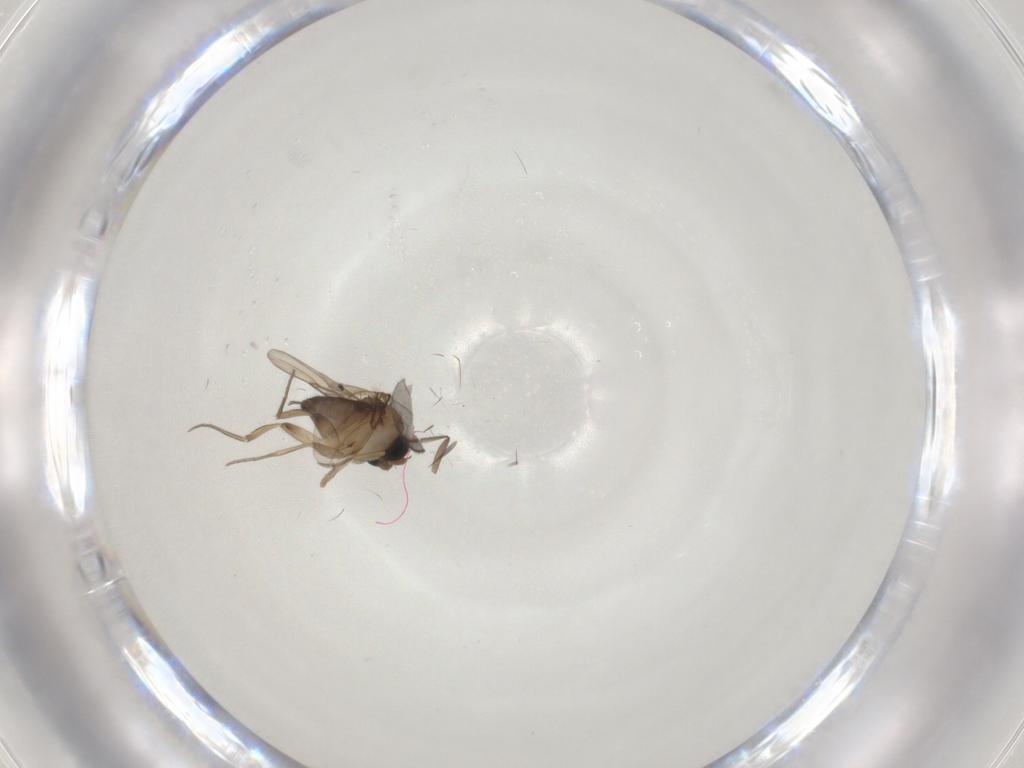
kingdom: Animalia
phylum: Arthropoda
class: Insecta
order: Diptera
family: Phoridae
